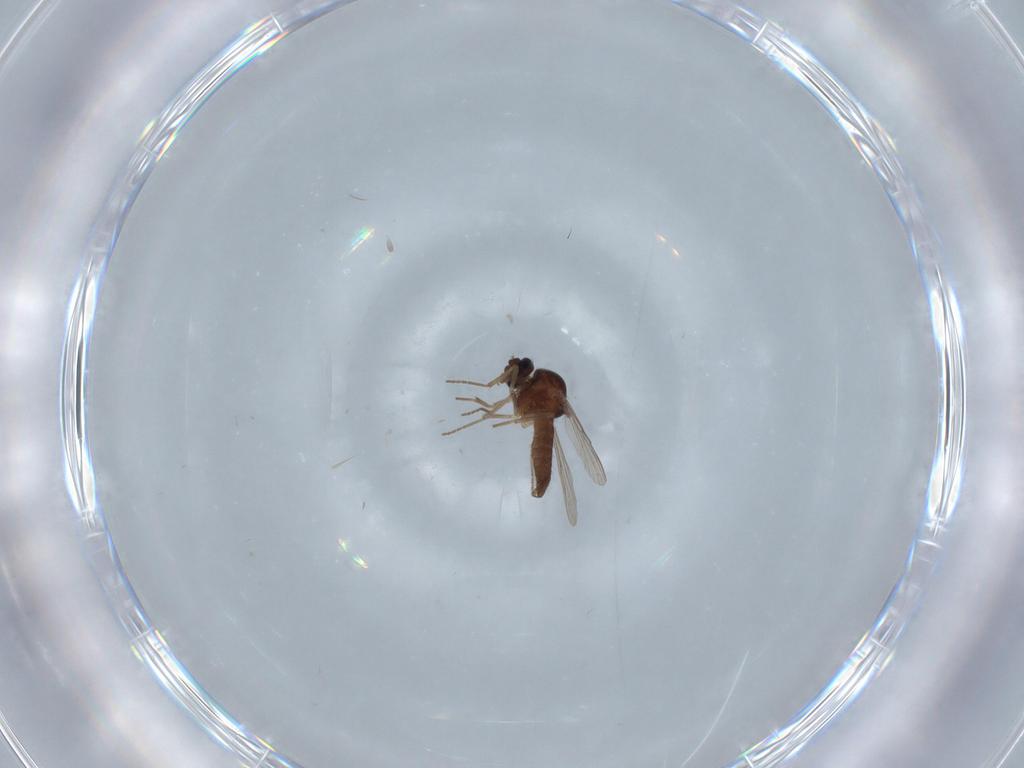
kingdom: Animalia
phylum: Arthropoda
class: Insecta
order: Diptera
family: Ceratopogonidae
